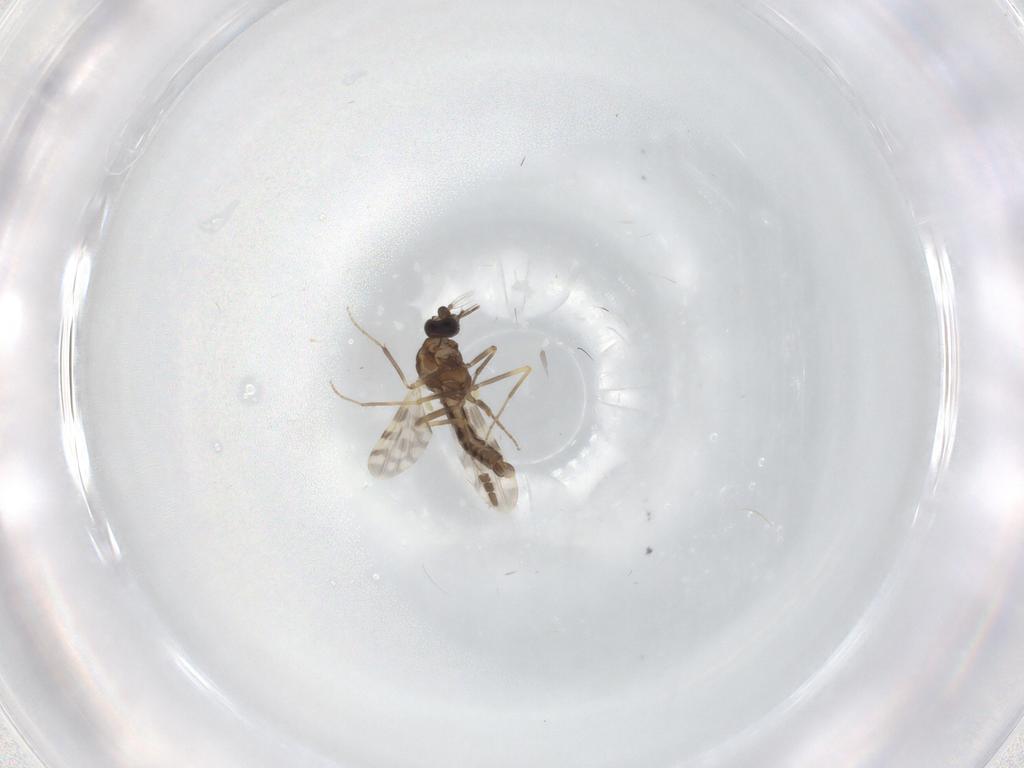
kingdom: Animalia
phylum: Arthropoda
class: Insecta
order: Diptera
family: Ceratopogonidae
